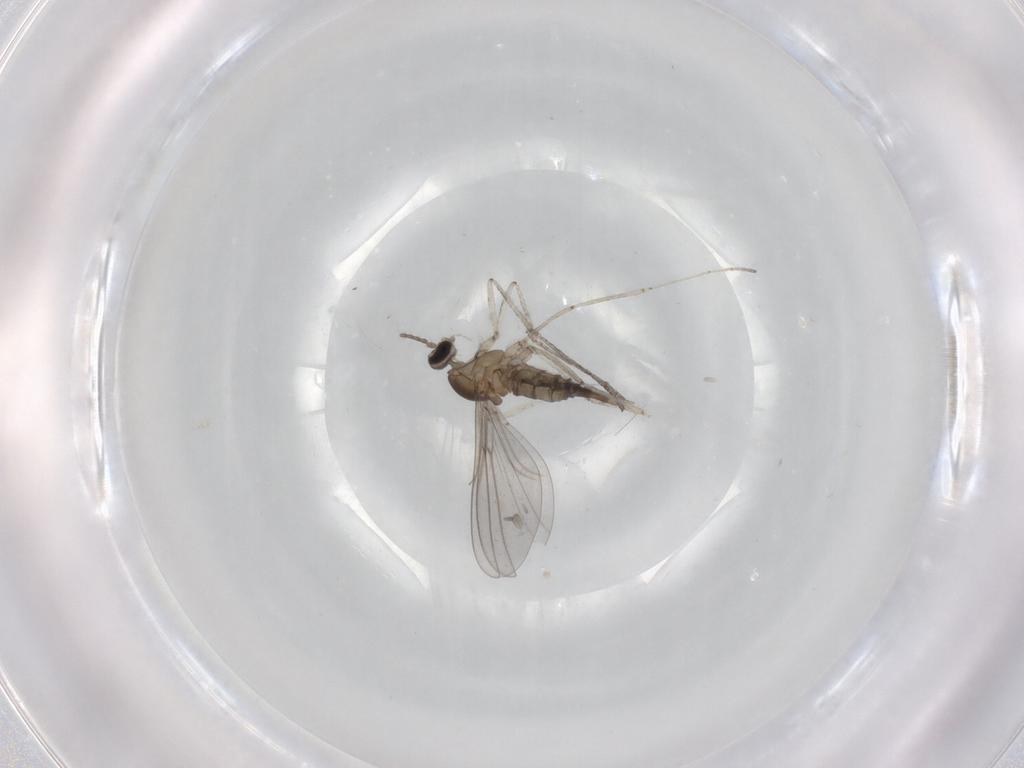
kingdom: Animalia
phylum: Arthropoda
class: Insecta
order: Diptera
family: Cecidomyiidae
